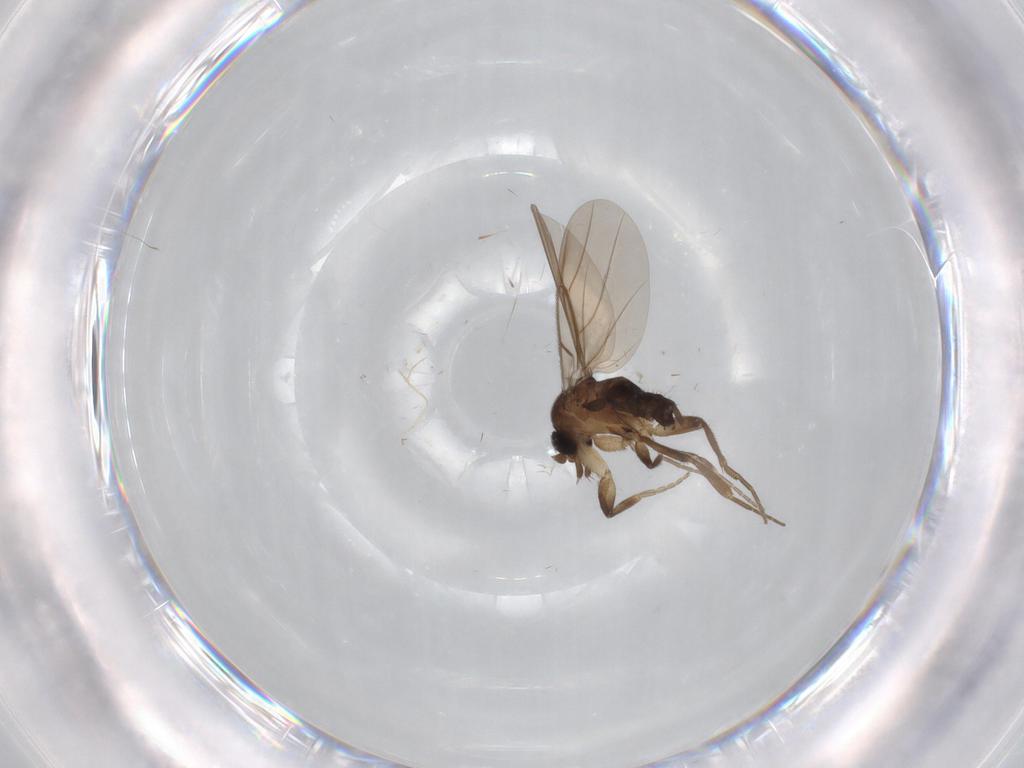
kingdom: Animalia
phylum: Arthropoda
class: Insecta
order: Diptera
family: Phoridae
